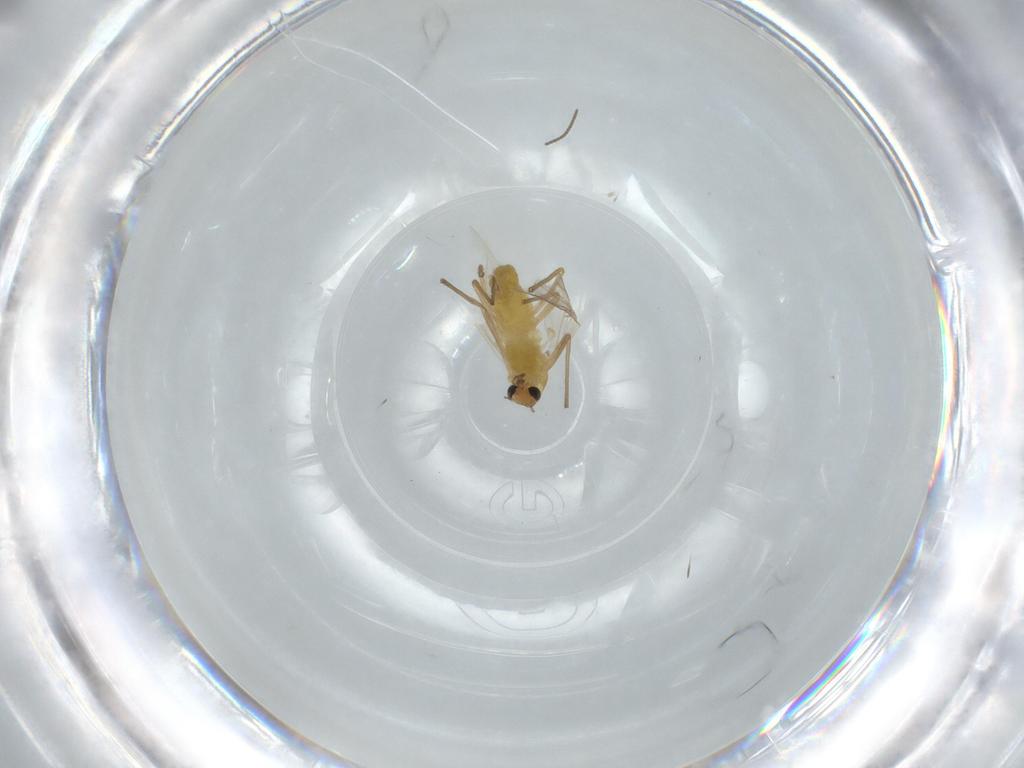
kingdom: Animalia
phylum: Arthropoda
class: Insecta
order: Diptera
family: Chironomidae
